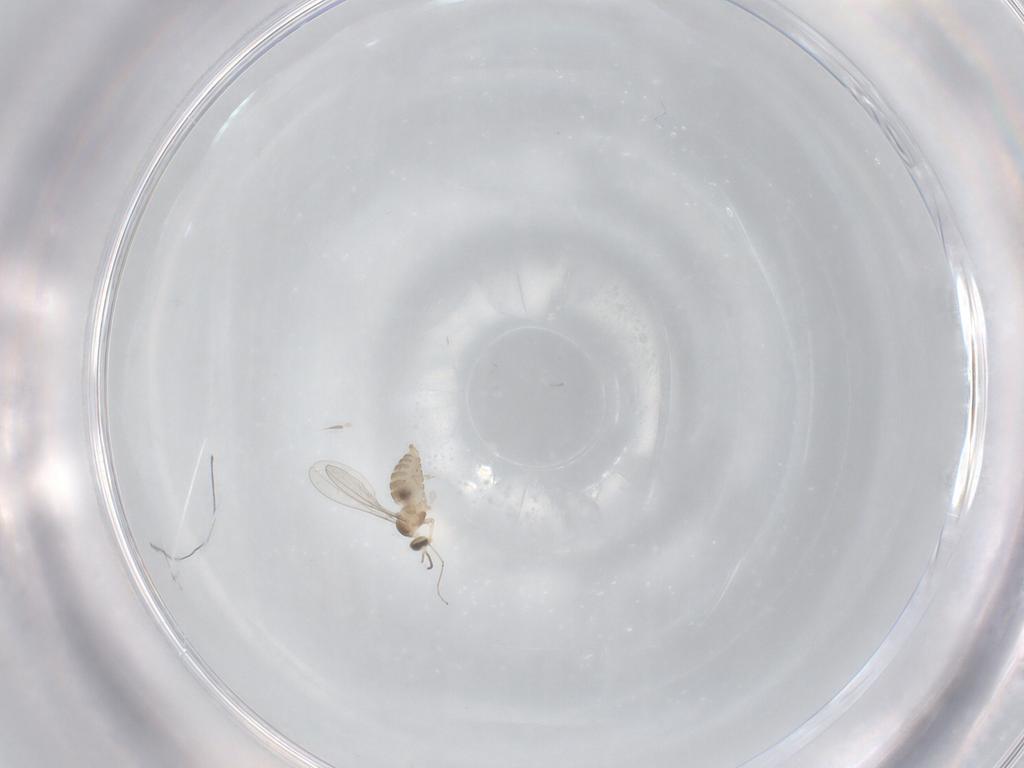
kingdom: Animalia
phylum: Arthropoda
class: Insecta
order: Diptera
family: Cecidomyiidae
